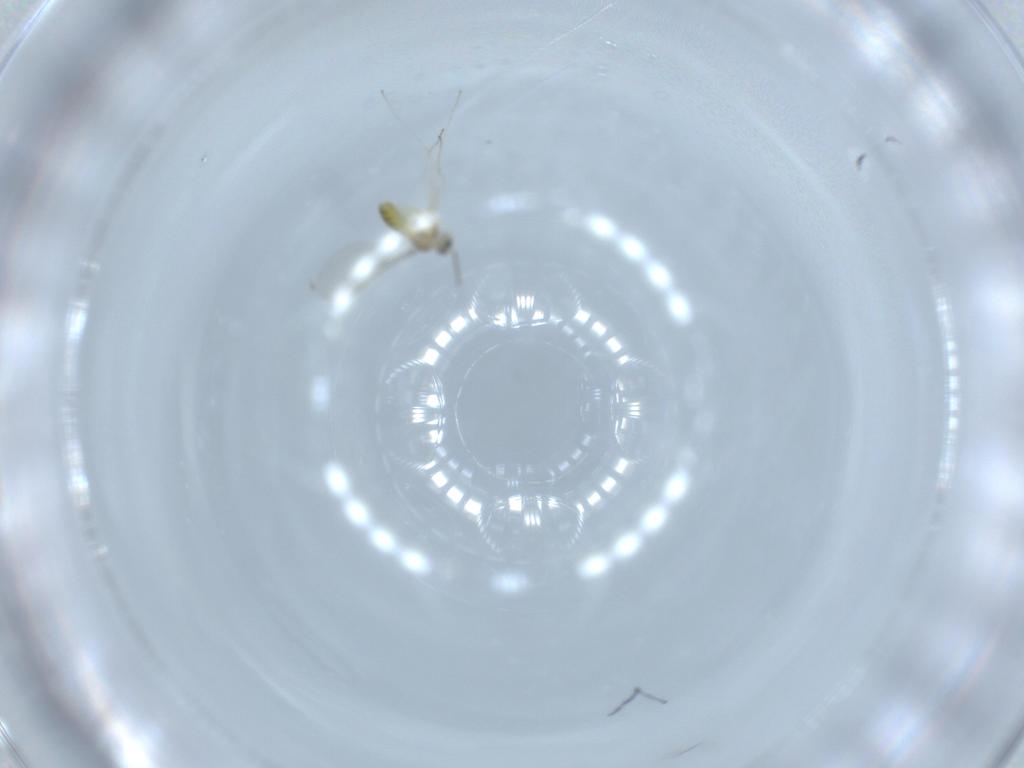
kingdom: Animalia
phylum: Arthropoda
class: Insecta
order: Diptera
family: Cecidomyiidae
